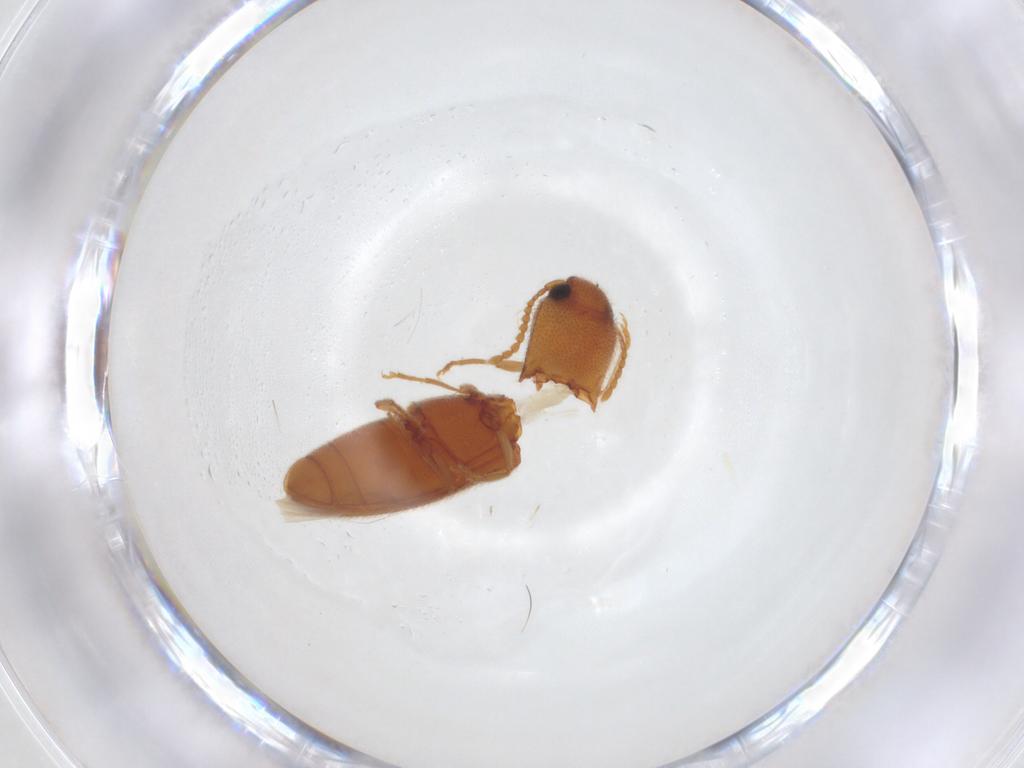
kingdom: Animalia
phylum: Arthropoda
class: Insecta
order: Coleoptera
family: Elateridae
